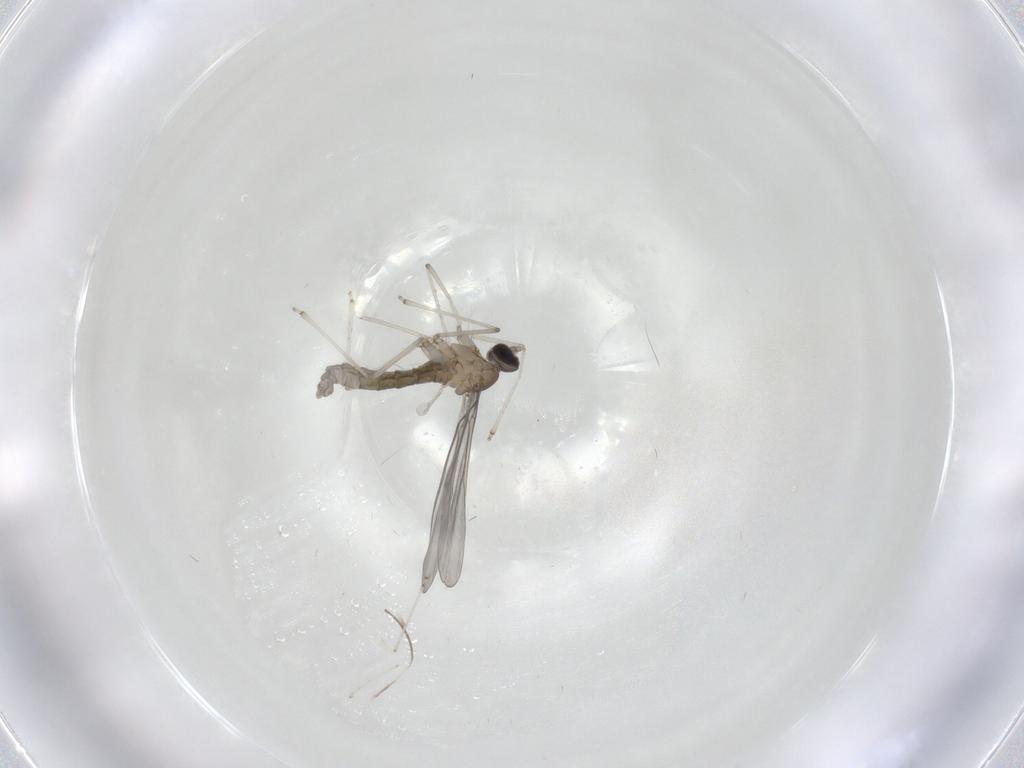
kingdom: Animalia
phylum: Arthropoda
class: Insecta
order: Diptera
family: Cecidomyiidae
